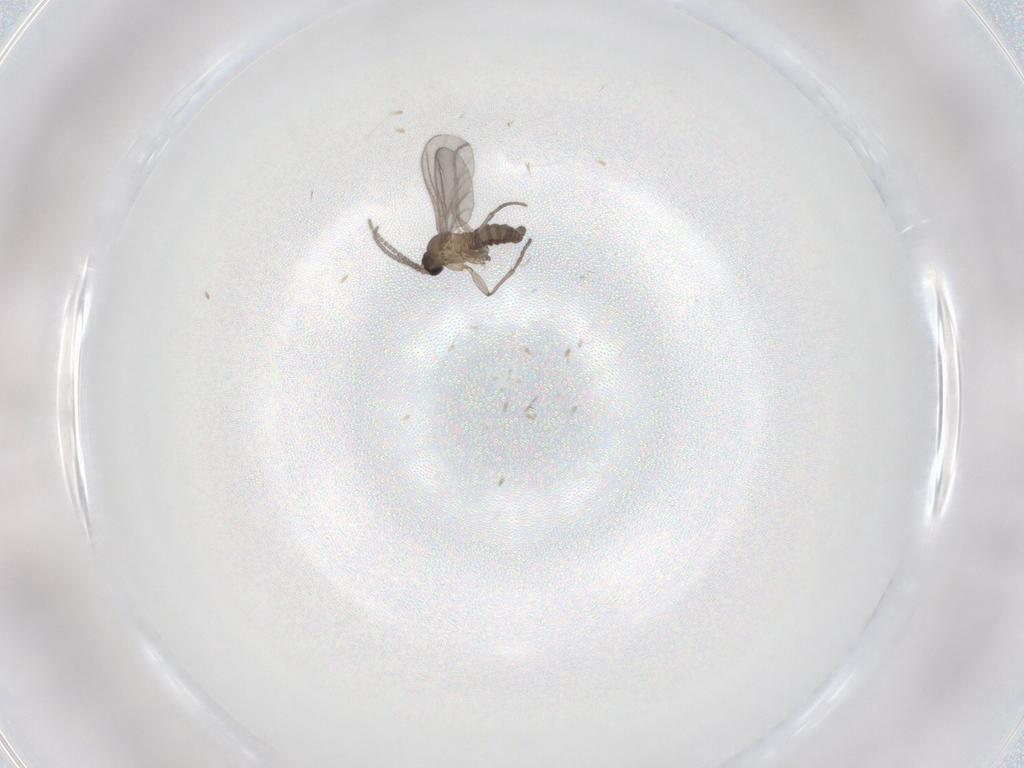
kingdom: Animalia
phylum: Arthropoda
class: Insecta
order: Diptera
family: Sciaridae
